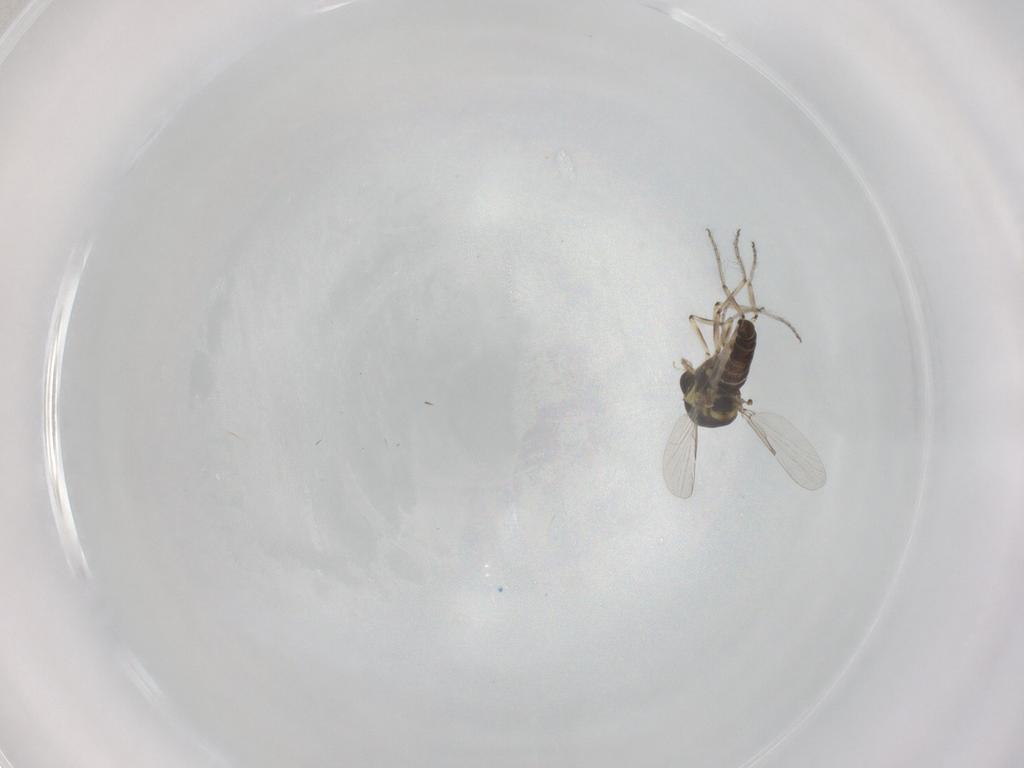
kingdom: Animalia
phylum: Arthropoda
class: Insecta
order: Diptera
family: Ceratopogonidae
